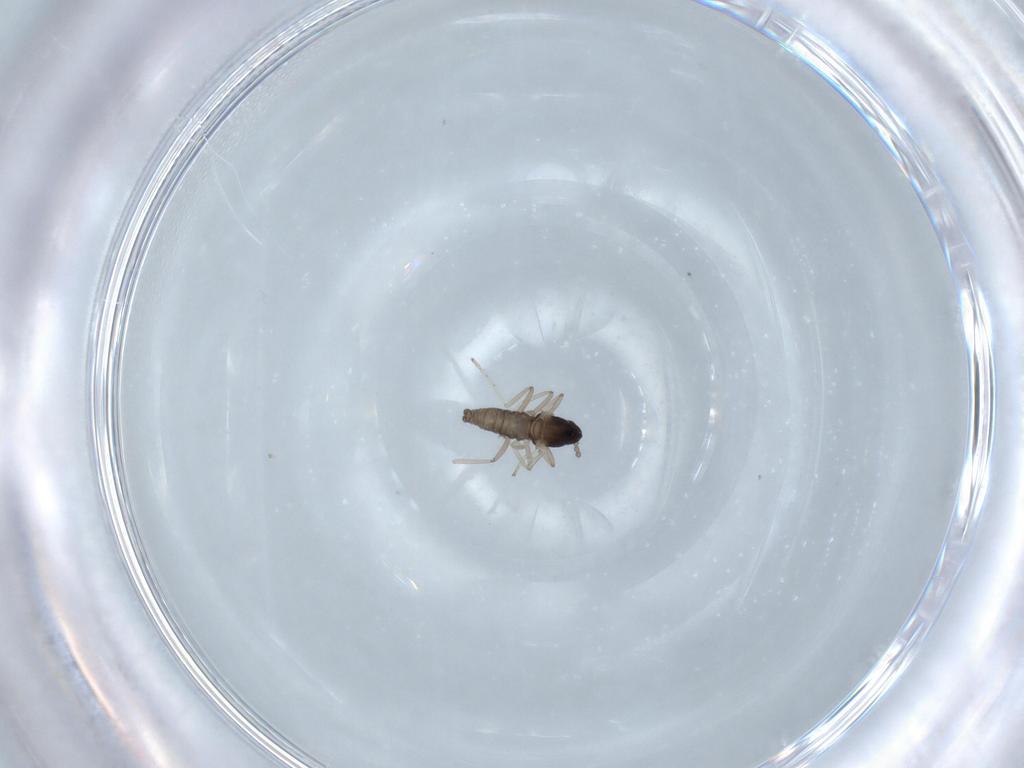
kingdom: Animalia
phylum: Arthropoda
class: Insecta
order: Diptera
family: Cecidomyiidae
